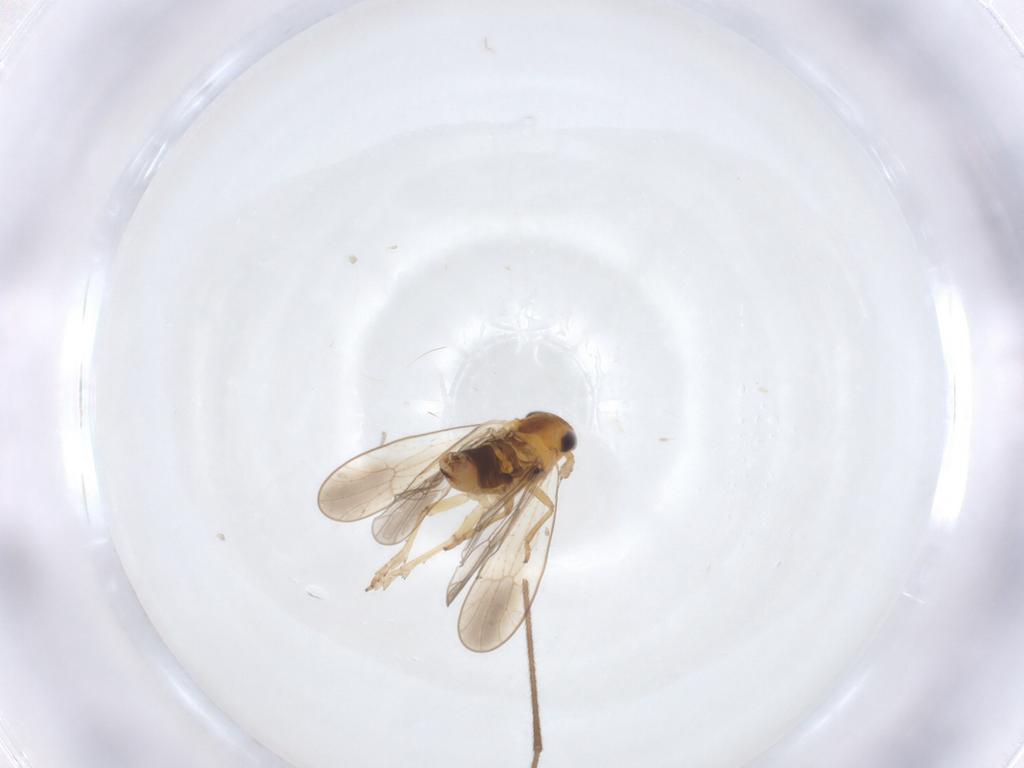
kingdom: Animalia
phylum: Arthropoda
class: Insecta
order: Hemiptera
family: Delphacidae
